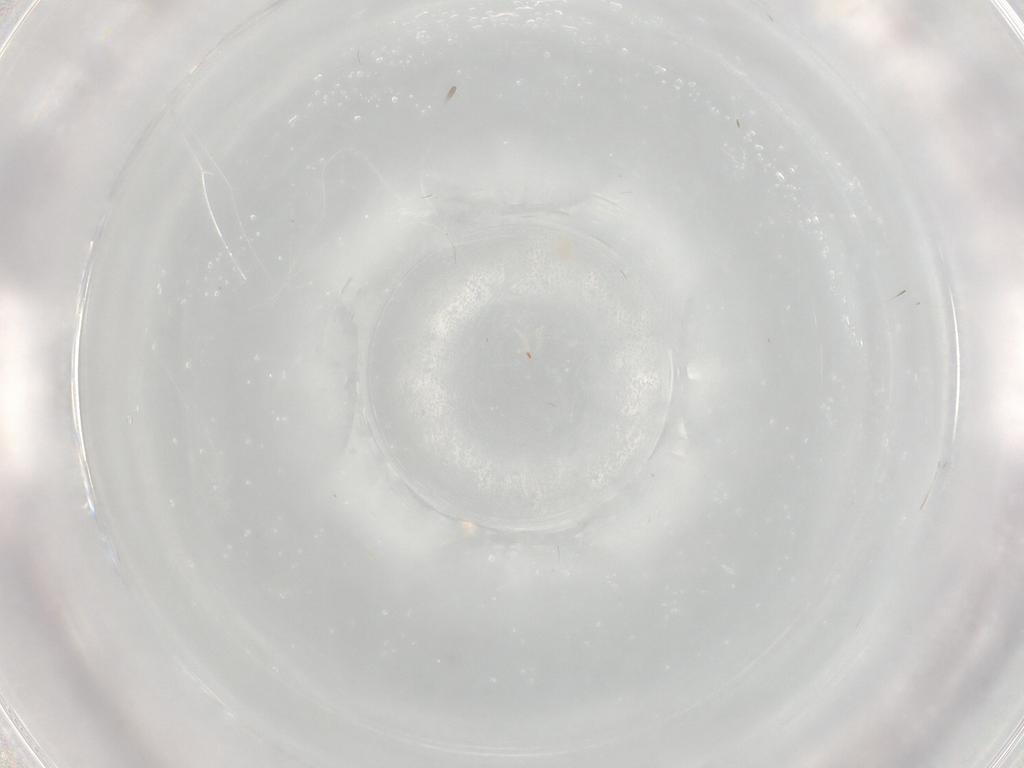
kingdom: Animalia
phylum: Arthropoda
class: Insecta
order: Diptera
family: Cecidomyiidae
